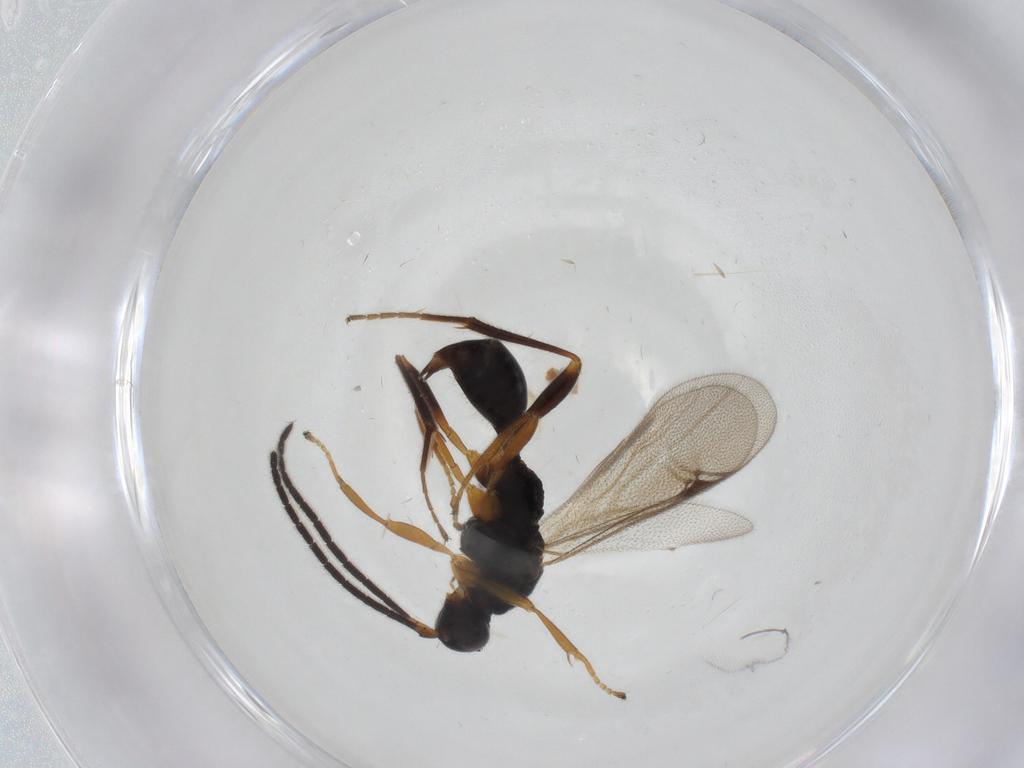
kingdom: Animalia
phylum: Arthropoda
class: Insecta
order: Hymenoptera
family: Proctotrupidae
